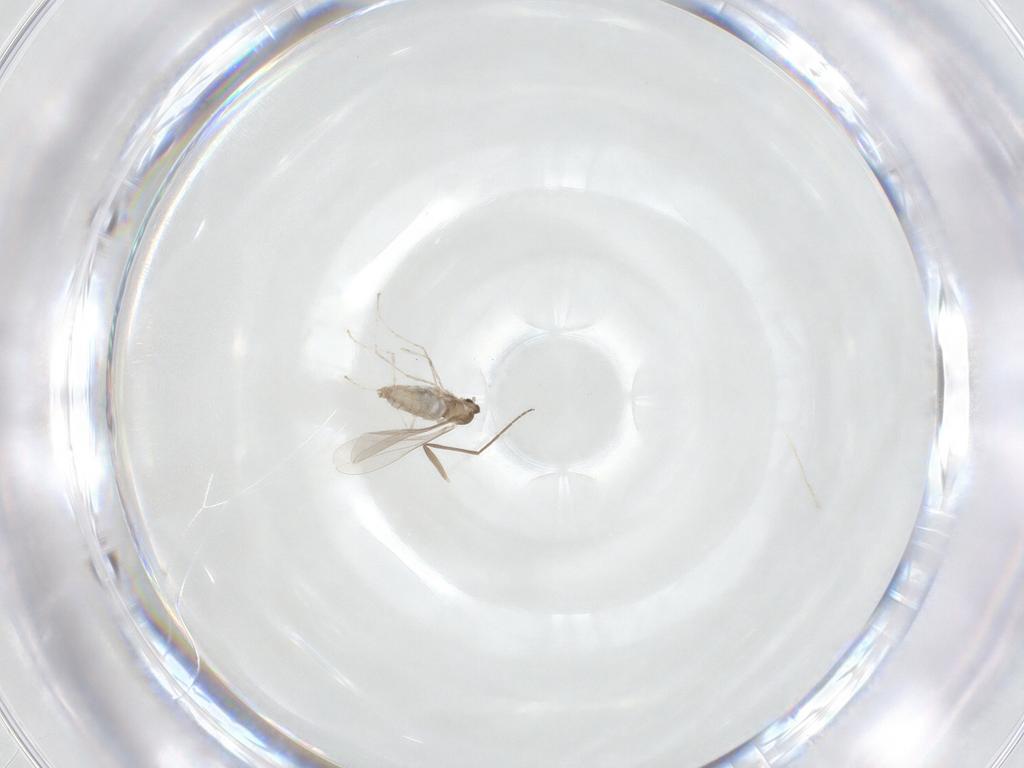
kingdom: Animalia
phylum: Arthropoda
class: Insecta
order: Diptera
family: Cecidomyiidae
